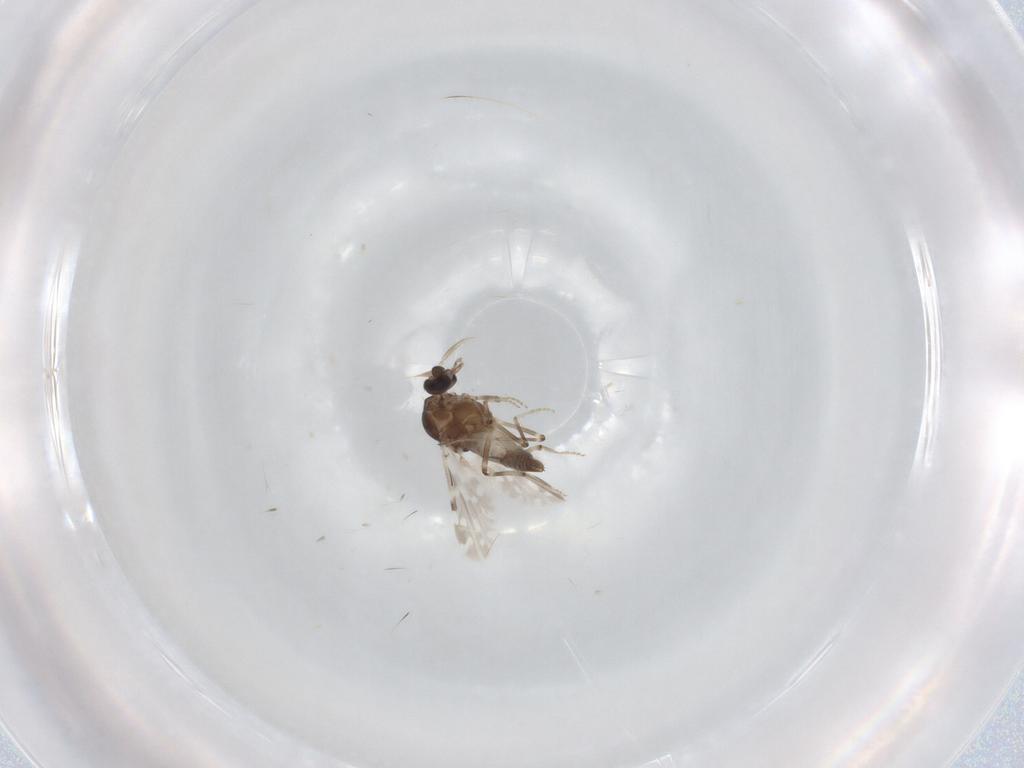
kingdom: Animalia
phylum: Arthropoda
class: Insecta
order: Diptera
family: Ceratopogonidae
